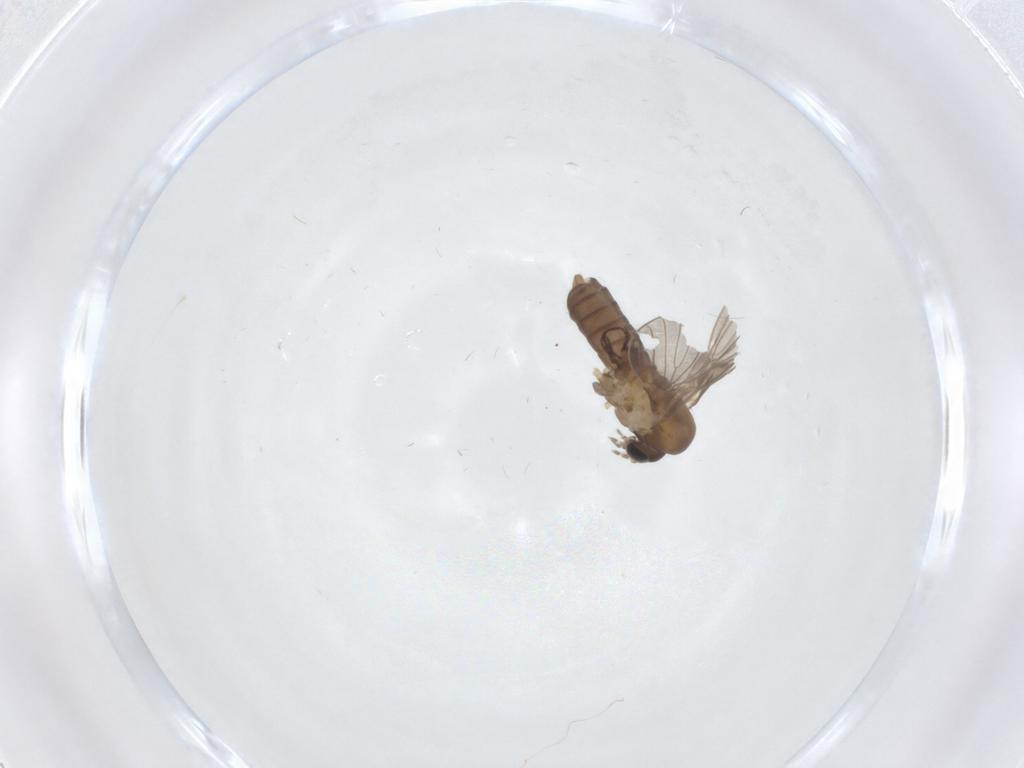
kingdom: Animalia
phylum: Arthropoda
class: Insecta
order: Diptera
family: Psychodidae
